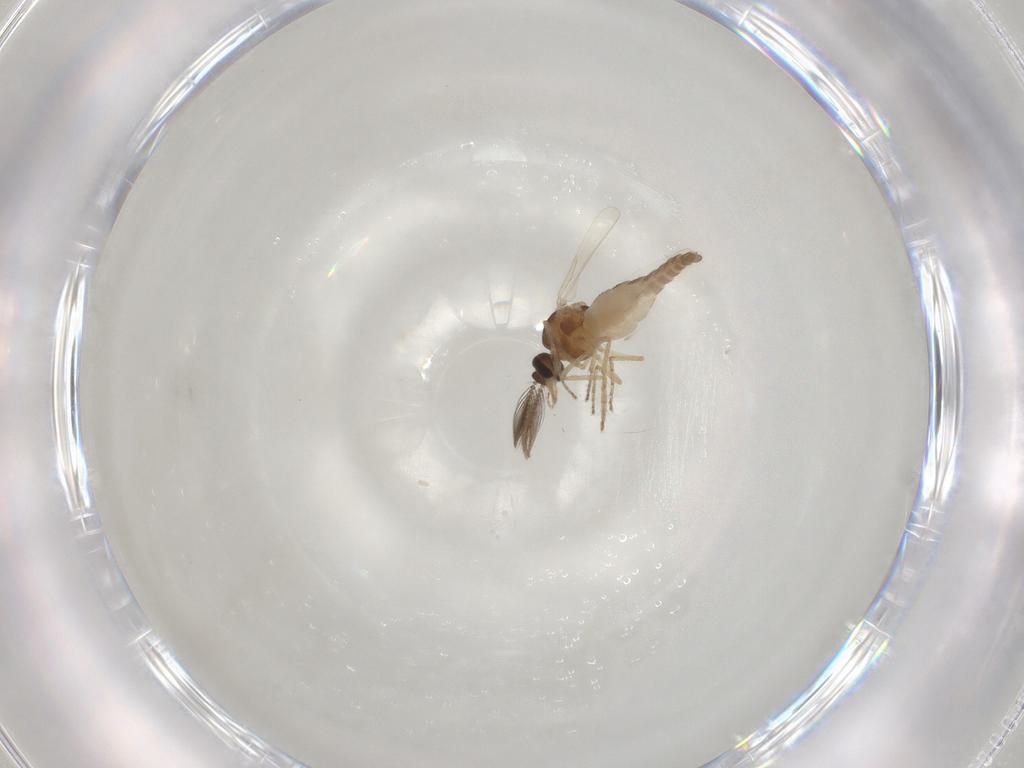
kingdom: Animalia
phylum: Arthropoda
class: Insecta
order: Diptera
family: Ceratopogonidae
